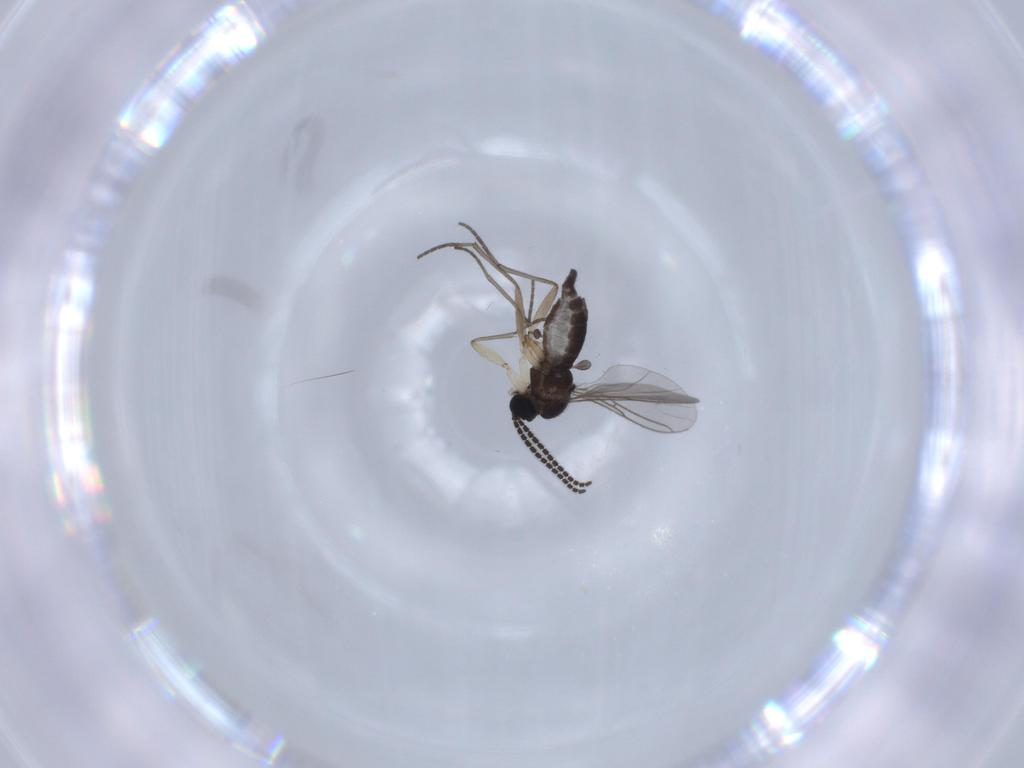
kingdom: Animalia
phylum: Arthropoda
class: Insecta
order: Diptera
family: Sciaridae
